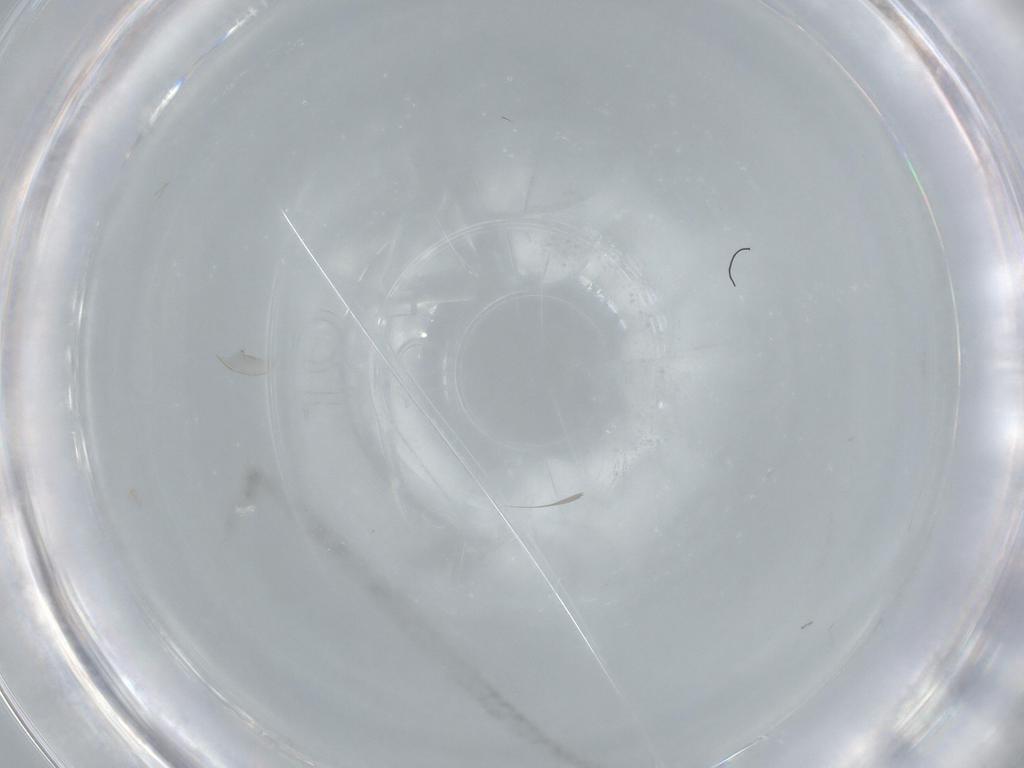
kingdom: Animalia
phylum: Arthropoda
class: Insecta
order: Diptera
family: Cecidomyiidae
